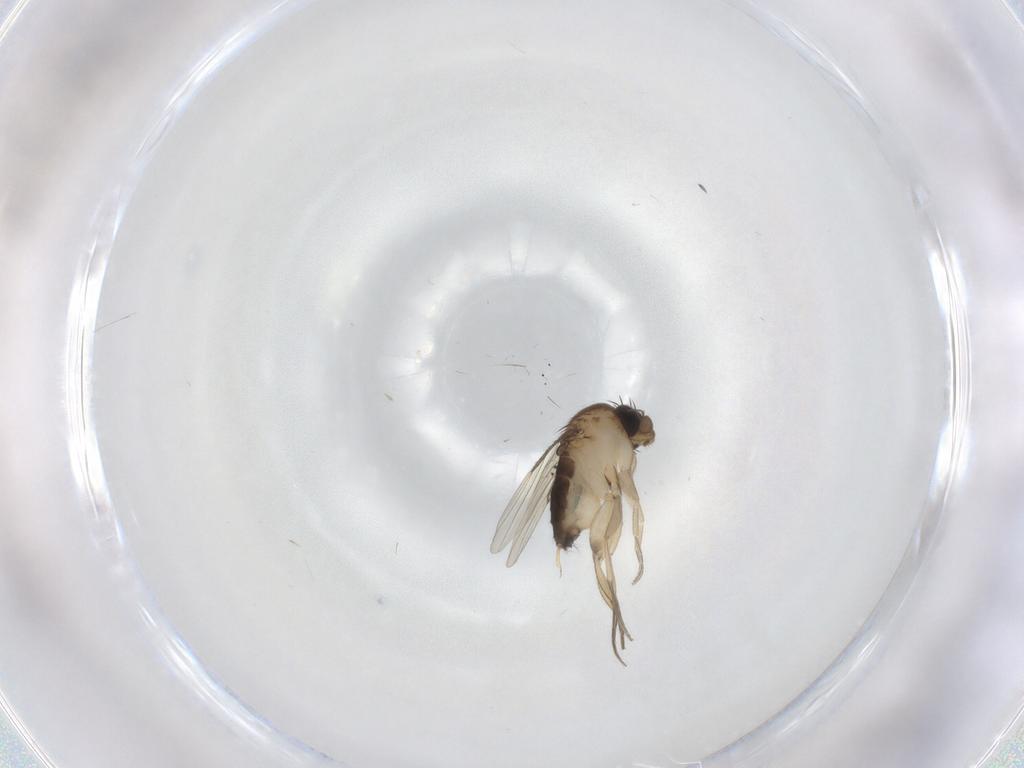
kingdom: Animalia
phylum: Arthropoda
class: Insecta
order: Diptera
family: Phoridae
